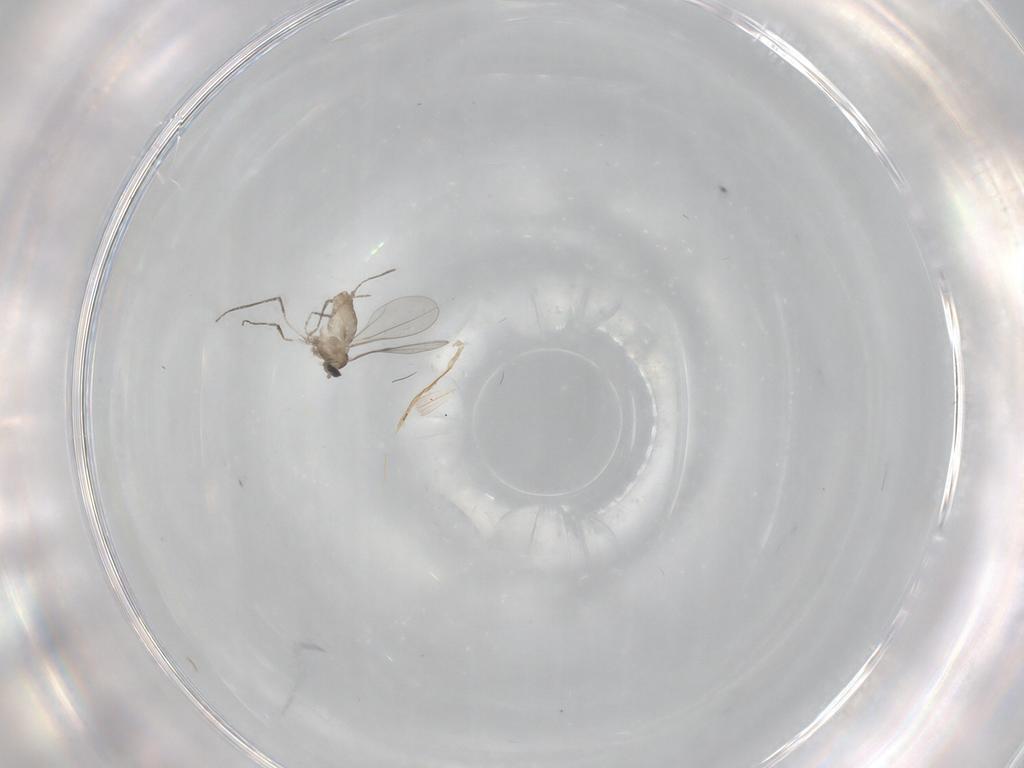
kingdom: Animalia
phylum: Arthropoda
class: Insecta
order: Diptera
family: Cecidomyiidae
